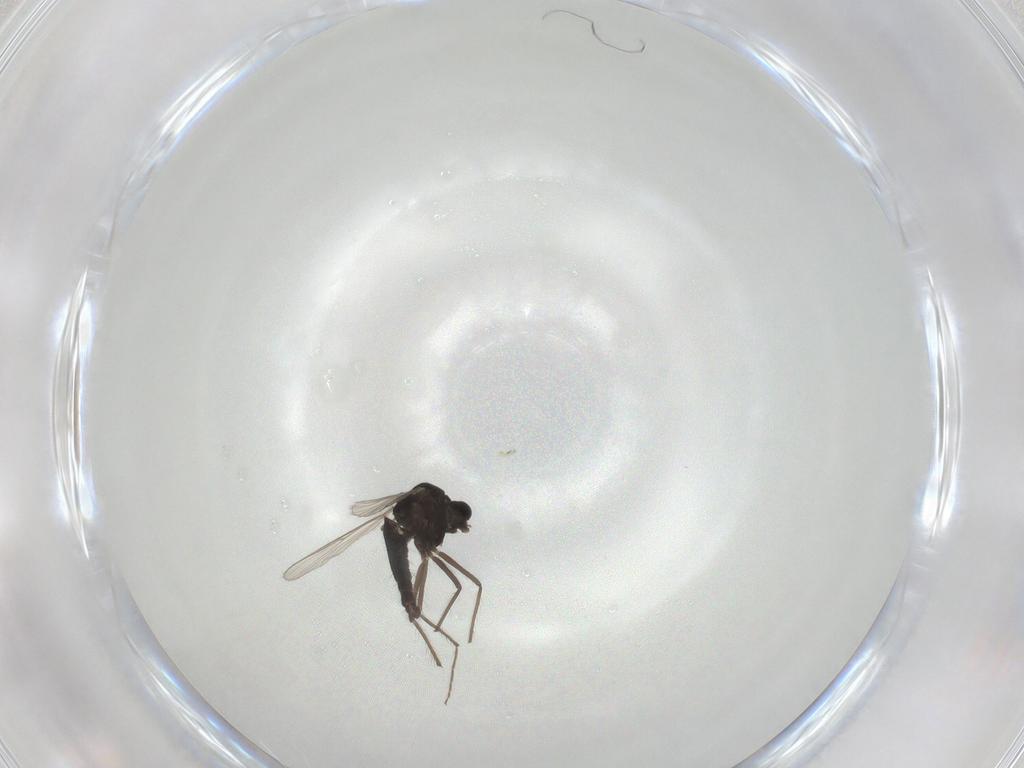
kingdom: Animalia
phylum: Arthropoda
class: Insecta
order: Diptera
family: Chironomidae
